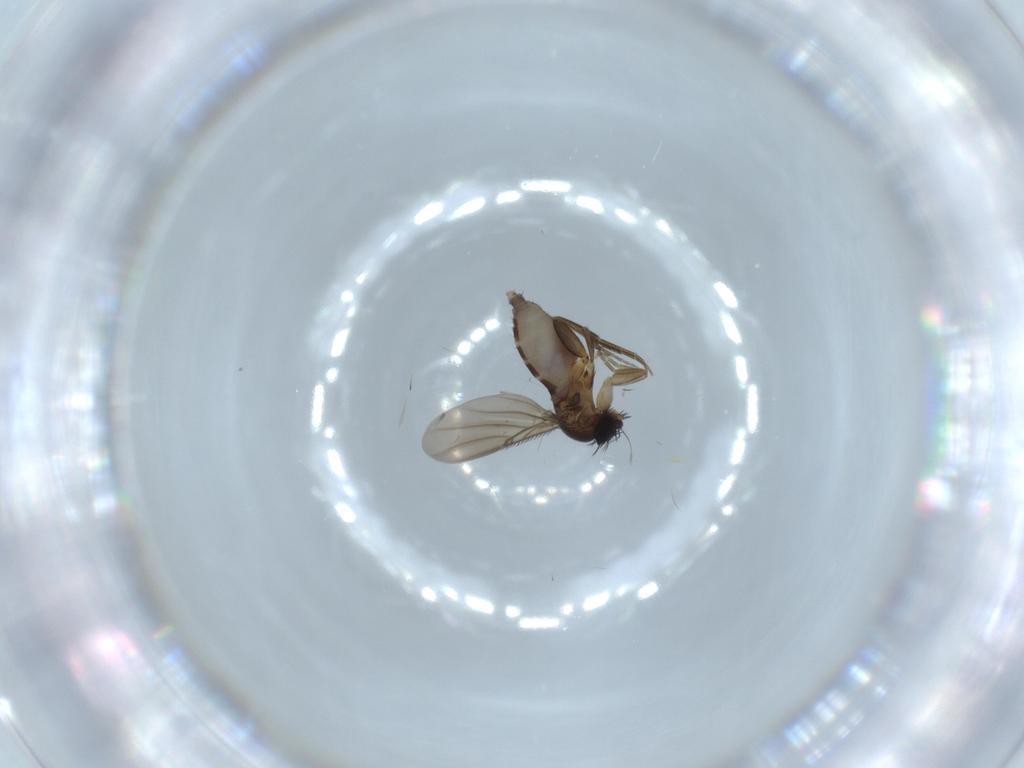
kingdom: Animalia
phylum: Arthropoda
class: Insecta
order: Diptera
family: Phoridae
